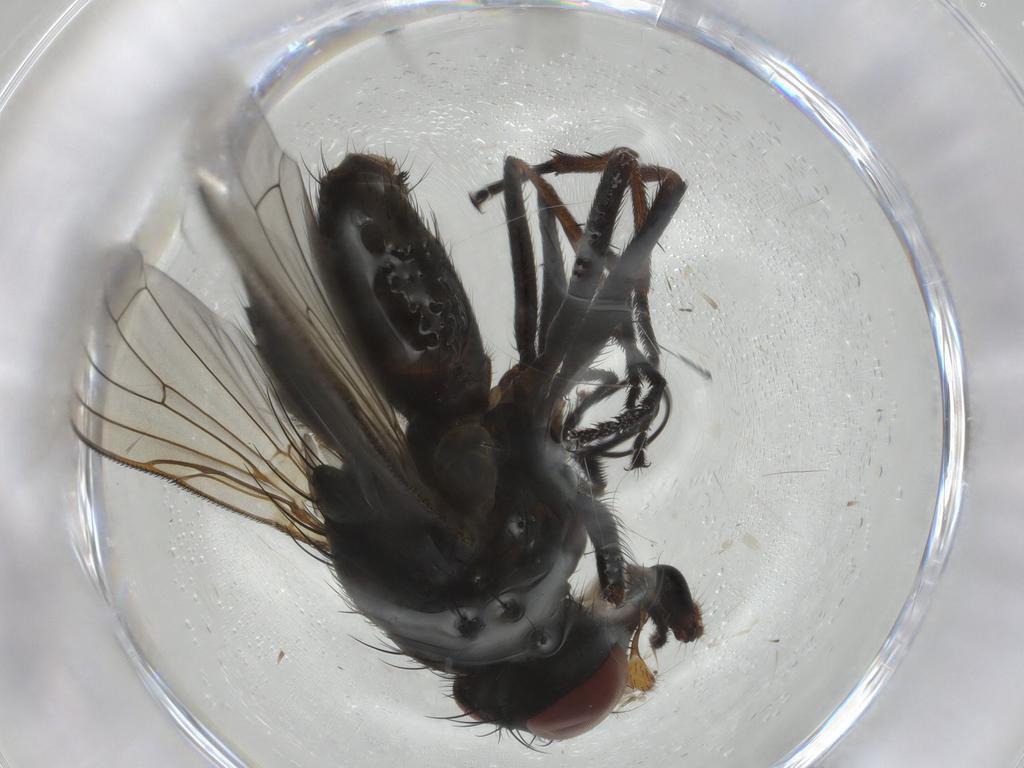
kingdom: Animalia
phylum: Arthropoda
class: Insecta
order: Diptera
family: Muscidae
